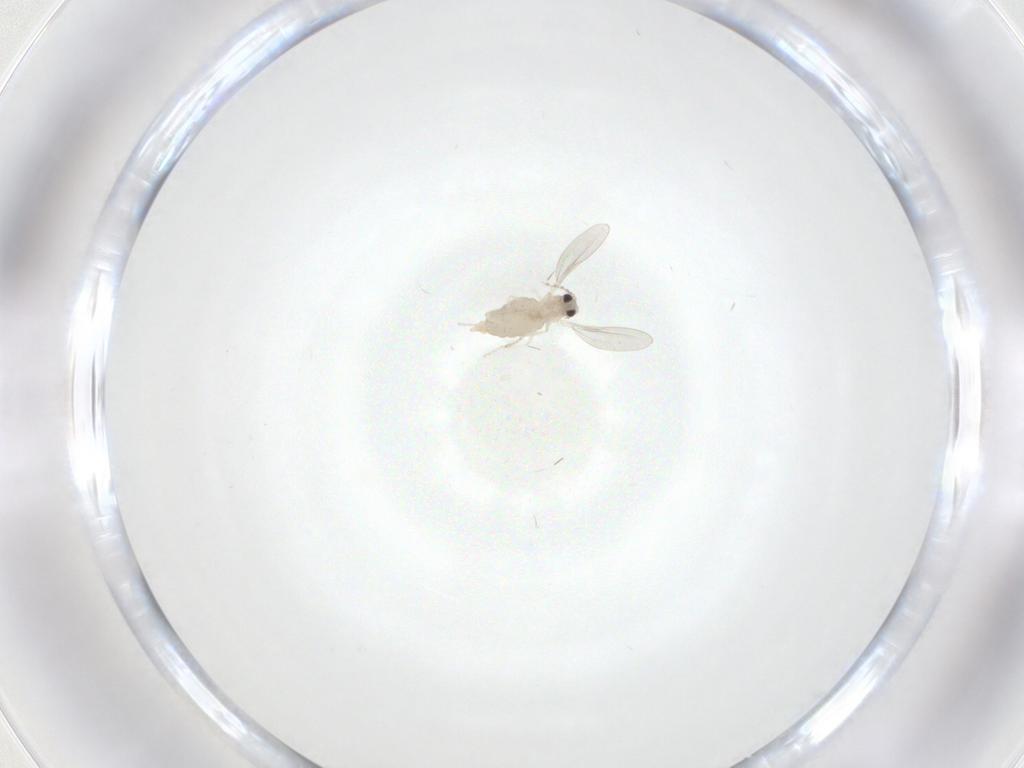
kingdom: Animalia
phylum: Arthropoda
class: Insecta
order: Diptera
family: Cecidomyiidae
